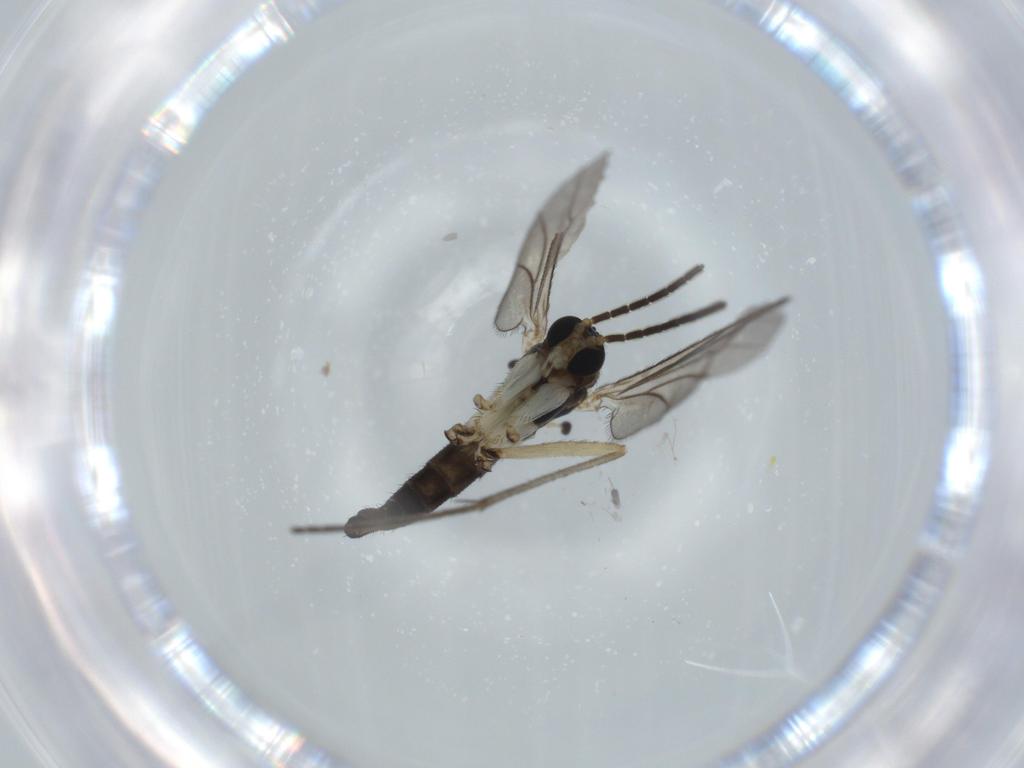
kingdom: Animalia
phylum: Arthropoda
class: Insecta
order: Diptera
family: Sciaridae
